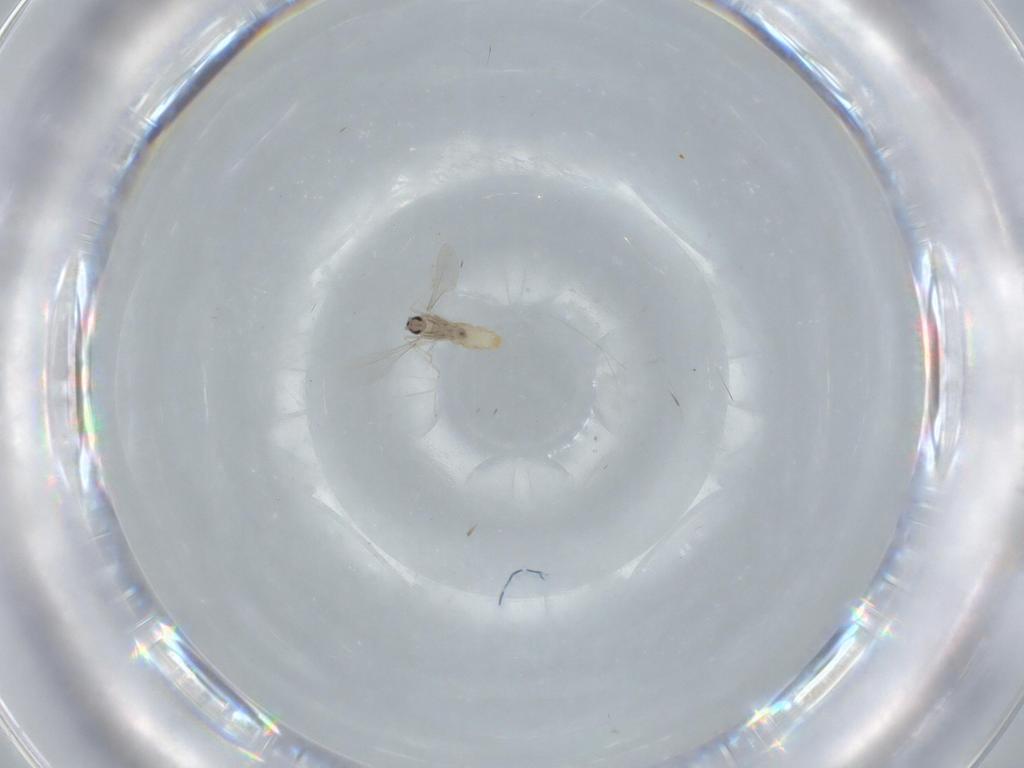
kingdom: Animalia
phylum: Arthropoda
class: Insecta
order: Diptera
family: Cecidomyiidae
